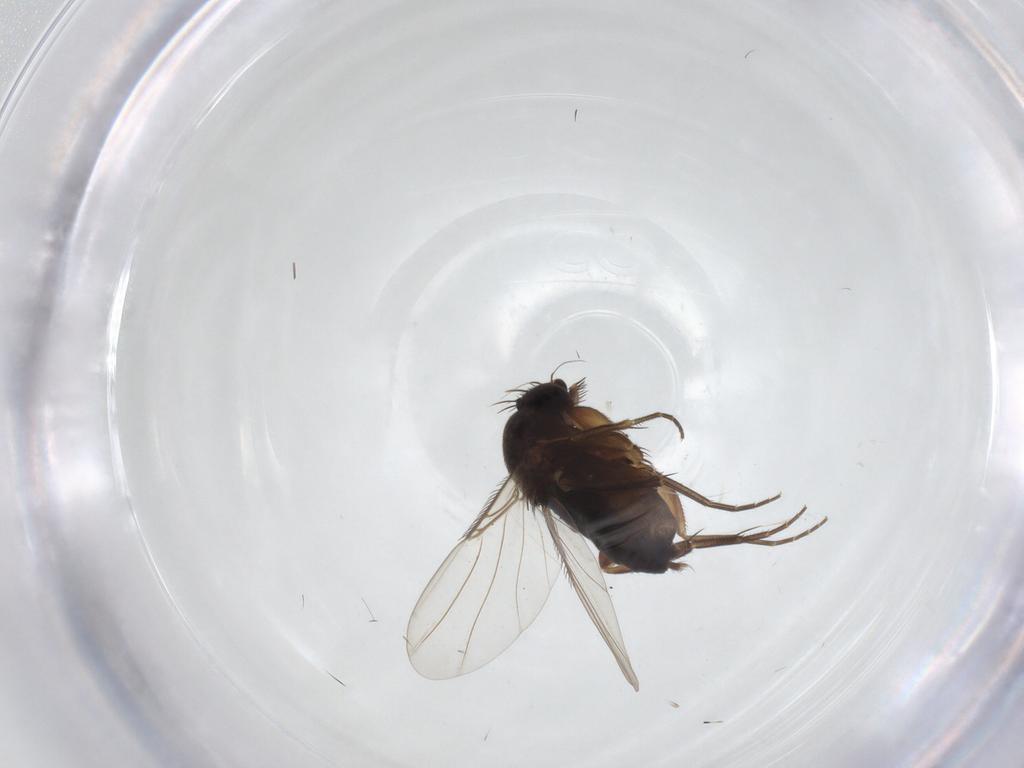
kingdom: Animalia
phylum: Arthropoda
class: Insecta
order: Diptera
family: Phoridae
